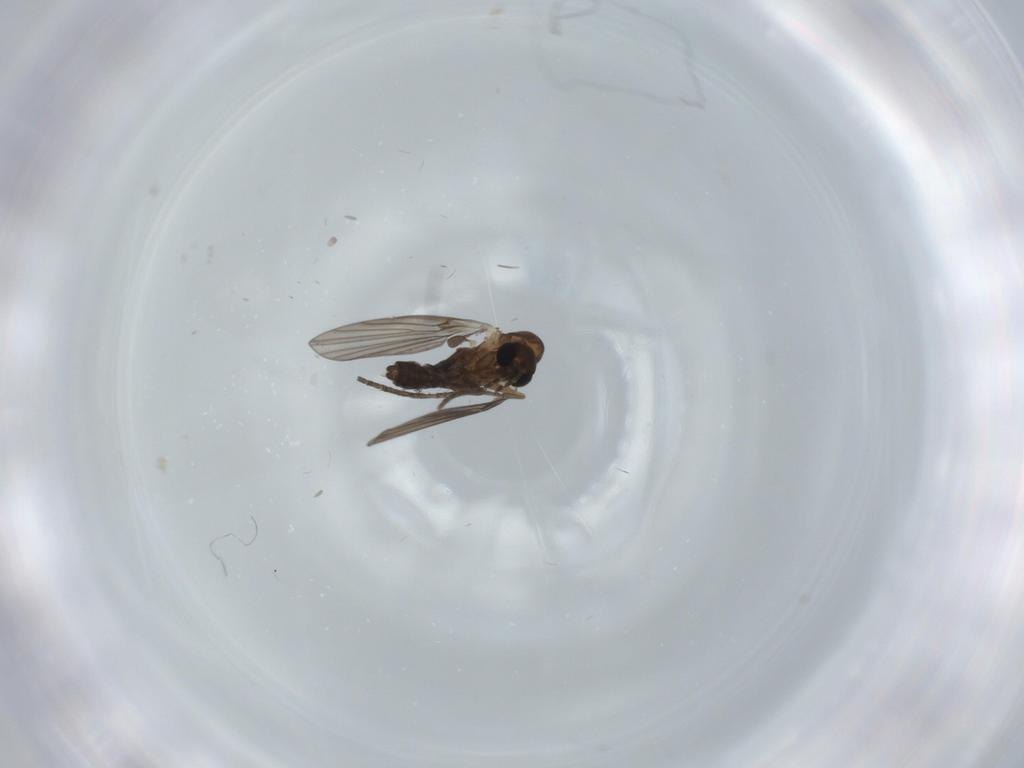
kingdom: Animalia
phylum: Arthropoda
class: Insecta
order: Diptera
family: Psychodidae
